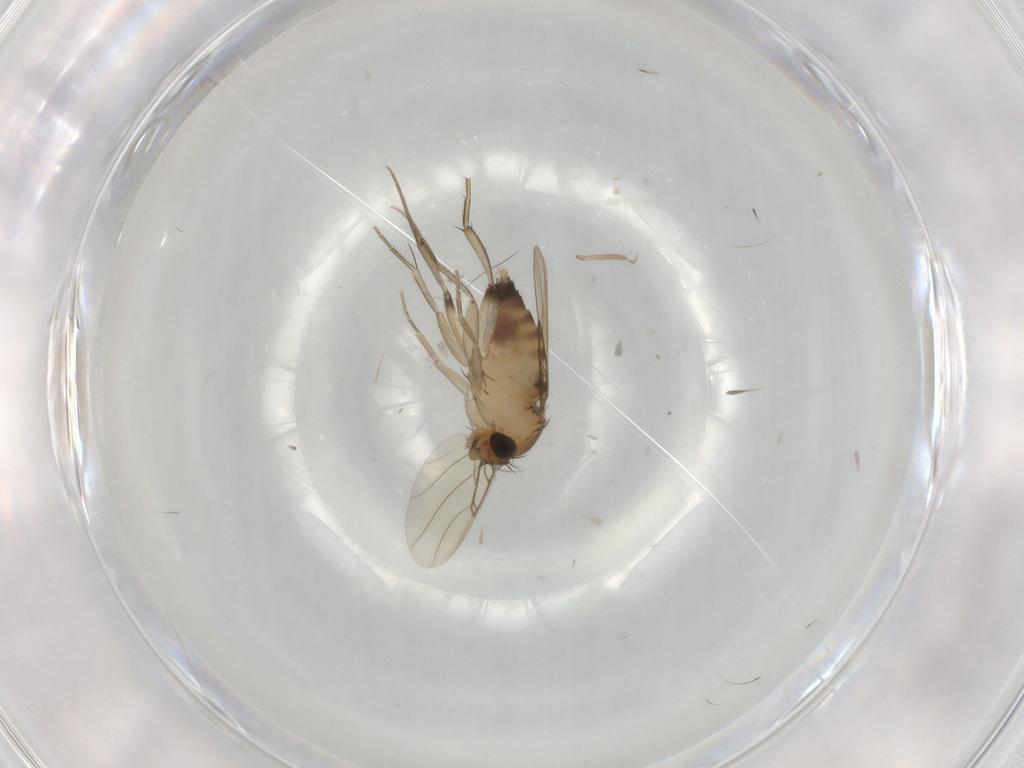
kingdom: Animalia
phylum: Arthropoda
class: Insecta
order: Diptera
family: Phoridae
